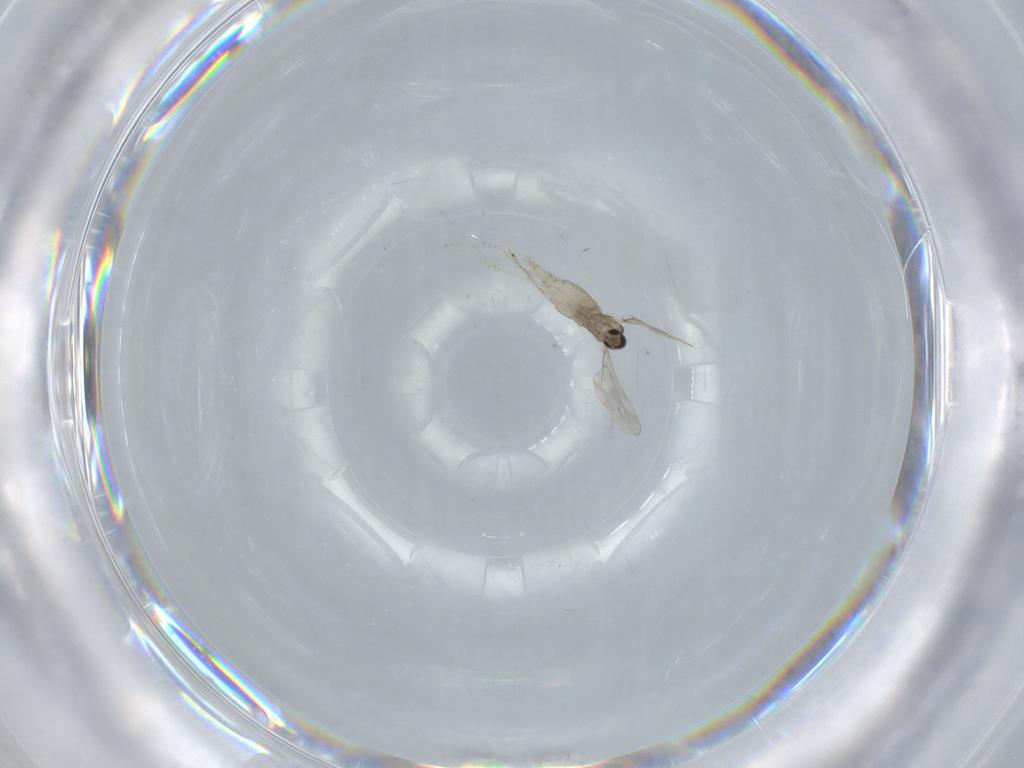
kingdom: Animalia
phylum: Arthropoda
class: Insecta
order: Diptera
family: Cecidomyiidae
